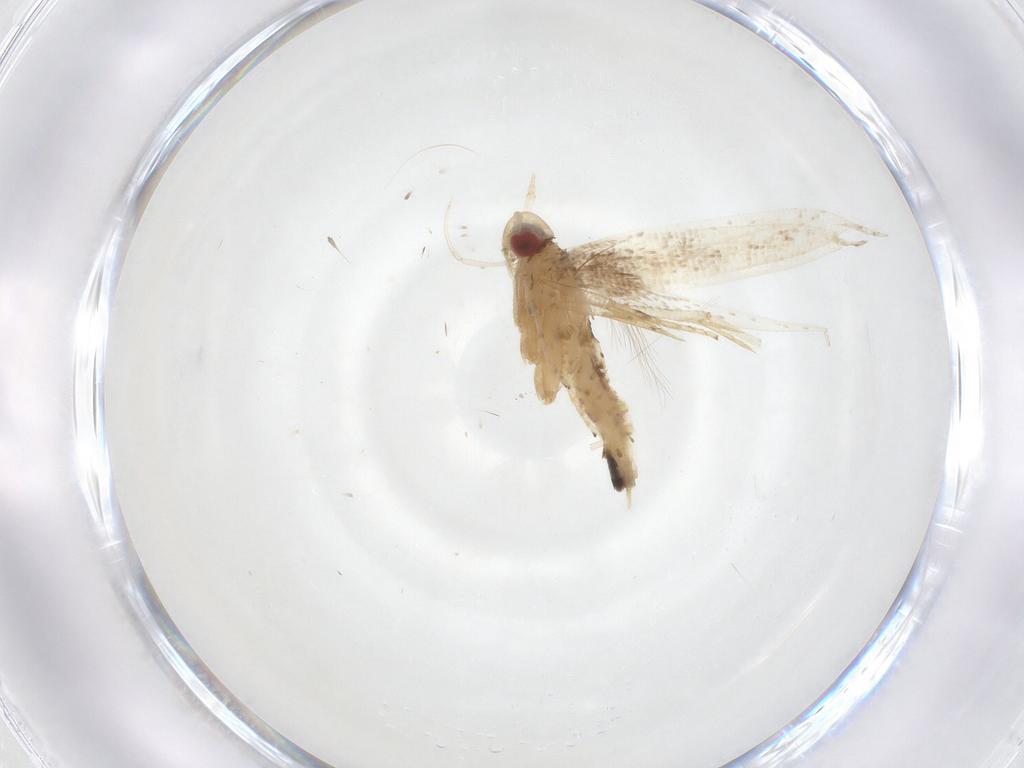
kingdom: Animalia
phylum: Arthropoda
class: Insecta
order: Lepidoptera
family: Cosmopterigidae
